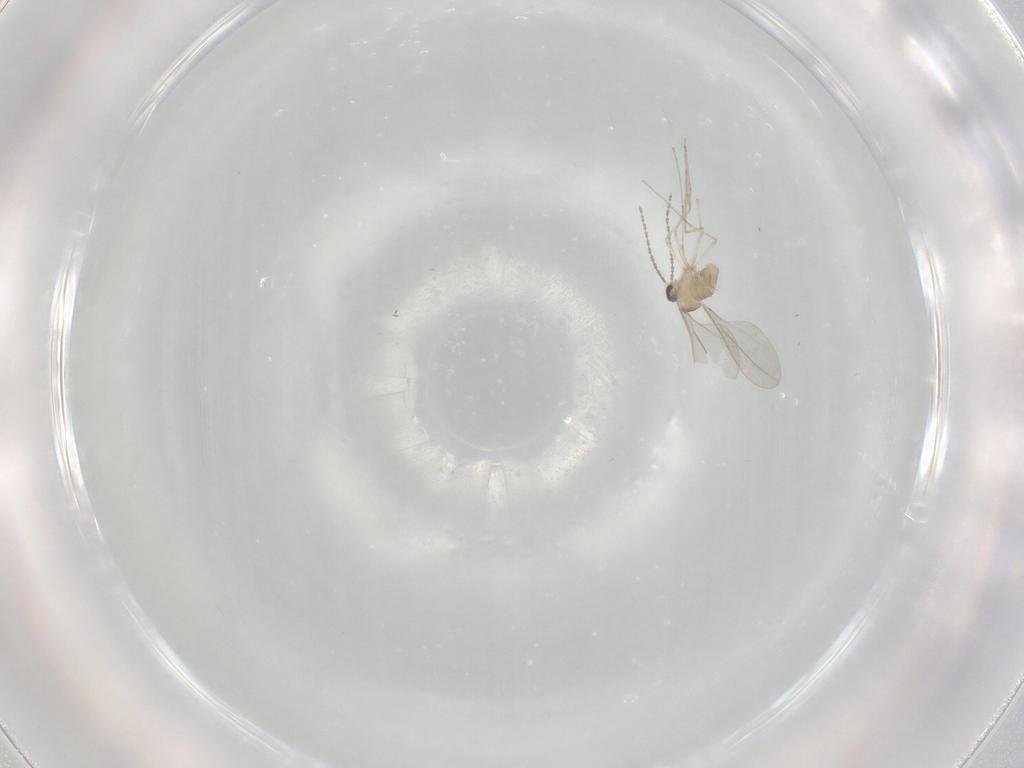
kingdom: Animalia
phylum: Arthropoda
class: Insecta
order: Diptera
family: Cecidomyiidae
